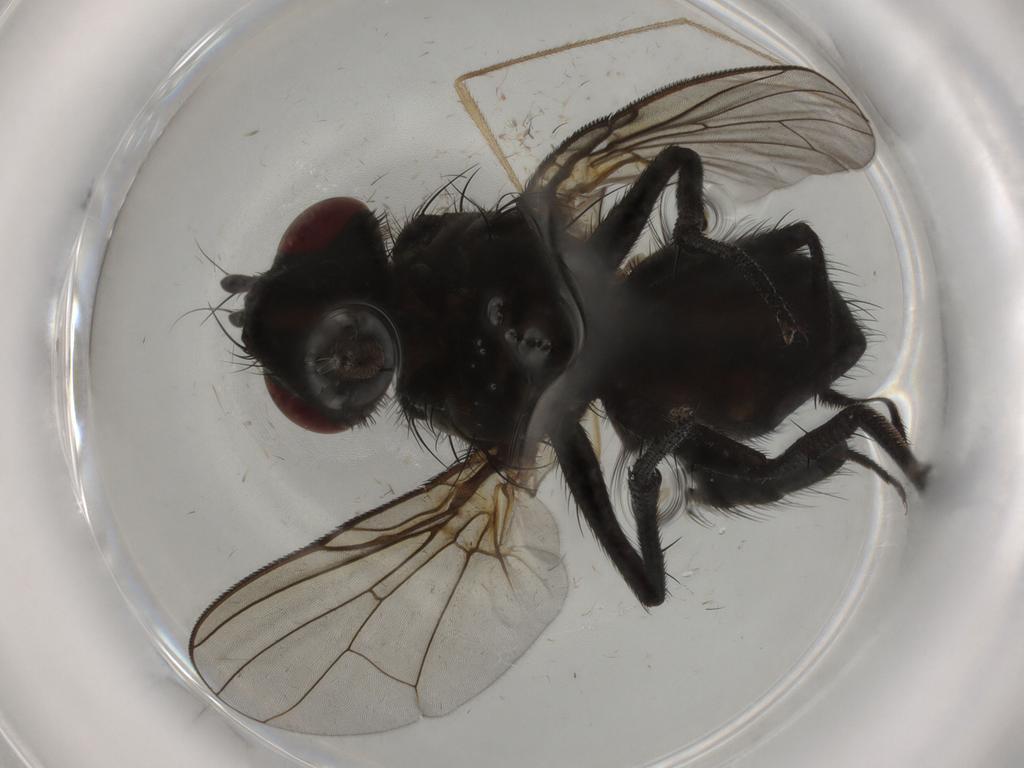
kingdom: Animalia
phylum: Arthropoda
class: Insecta
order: Diptera
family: Muscidae
